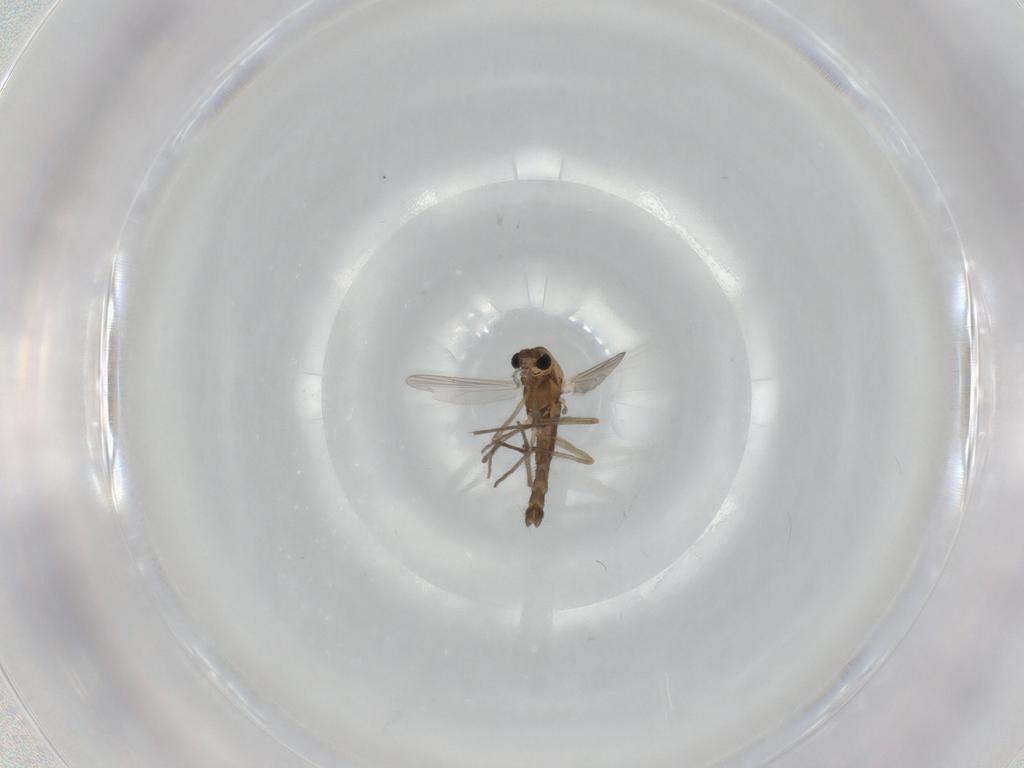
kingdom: Animalia
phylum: Arthropoda
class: Insecta
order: Diptera
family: Chironomidae
